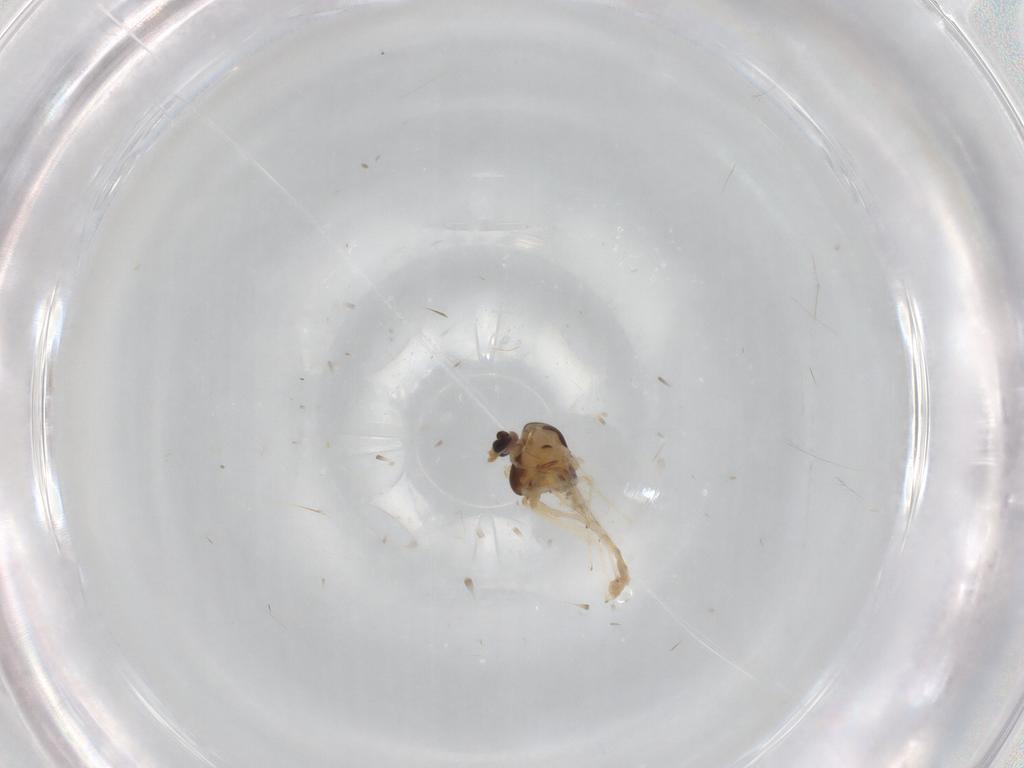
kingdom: Animalia
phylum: Arthropoda
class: Insecta
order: Diptera
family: Chironomidae
